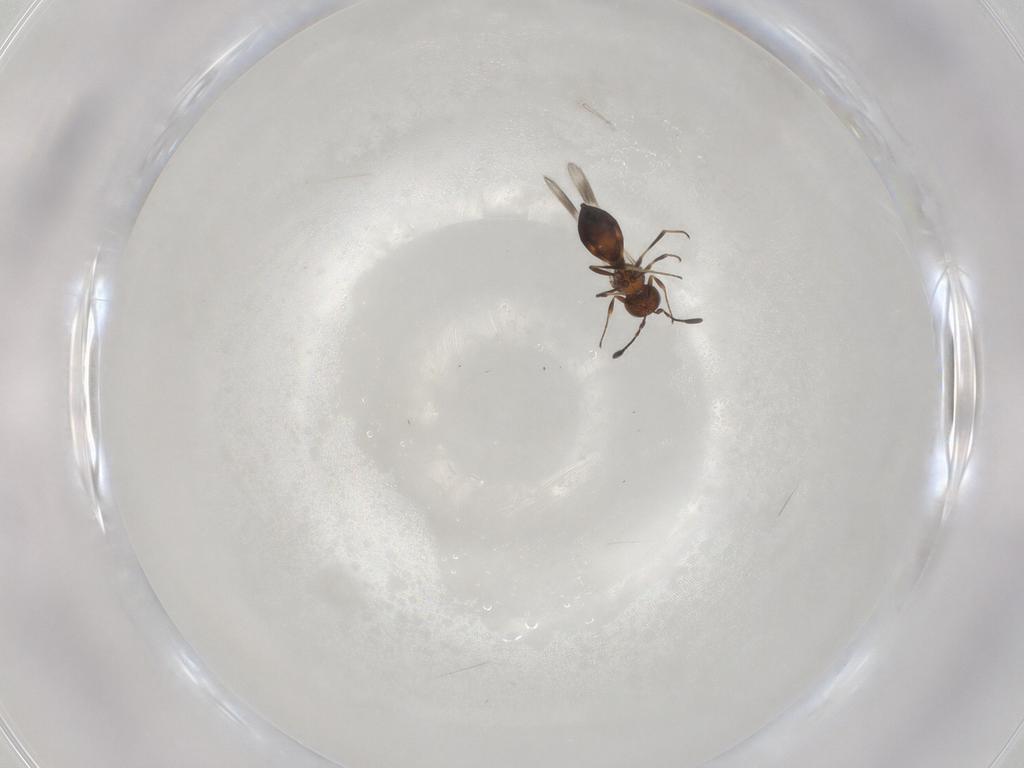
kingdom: Animalia
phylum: Arthropoda
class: Insecta
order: Hymenoptera
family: Scelionidae
